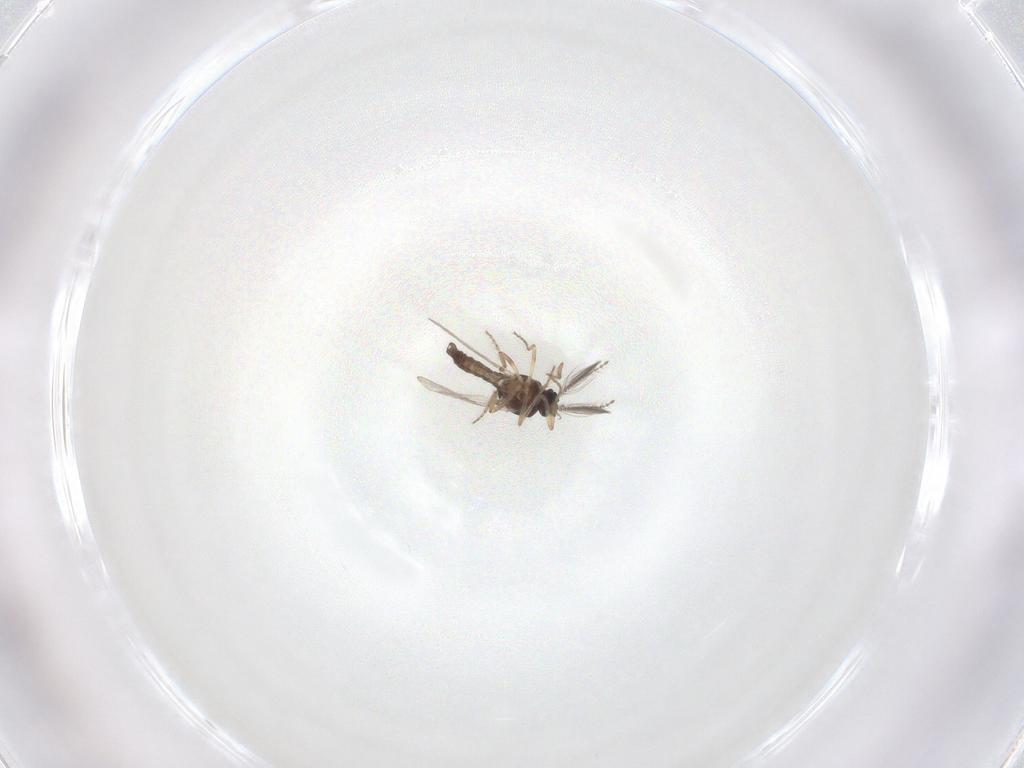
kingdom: Animalia
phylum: Arthropoda
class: Insecta
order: Diptera
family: Ceratopogonidae
